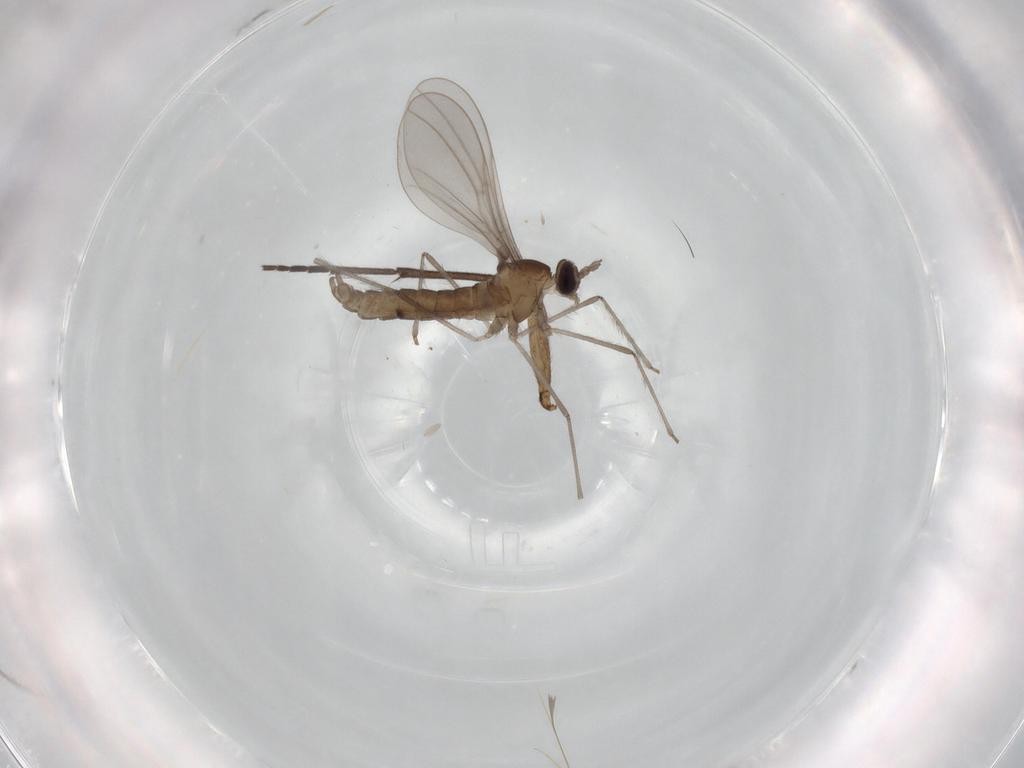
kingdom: Animalia
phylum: Arthropoda
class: Insecta
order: Diptera
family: Sciaridae
